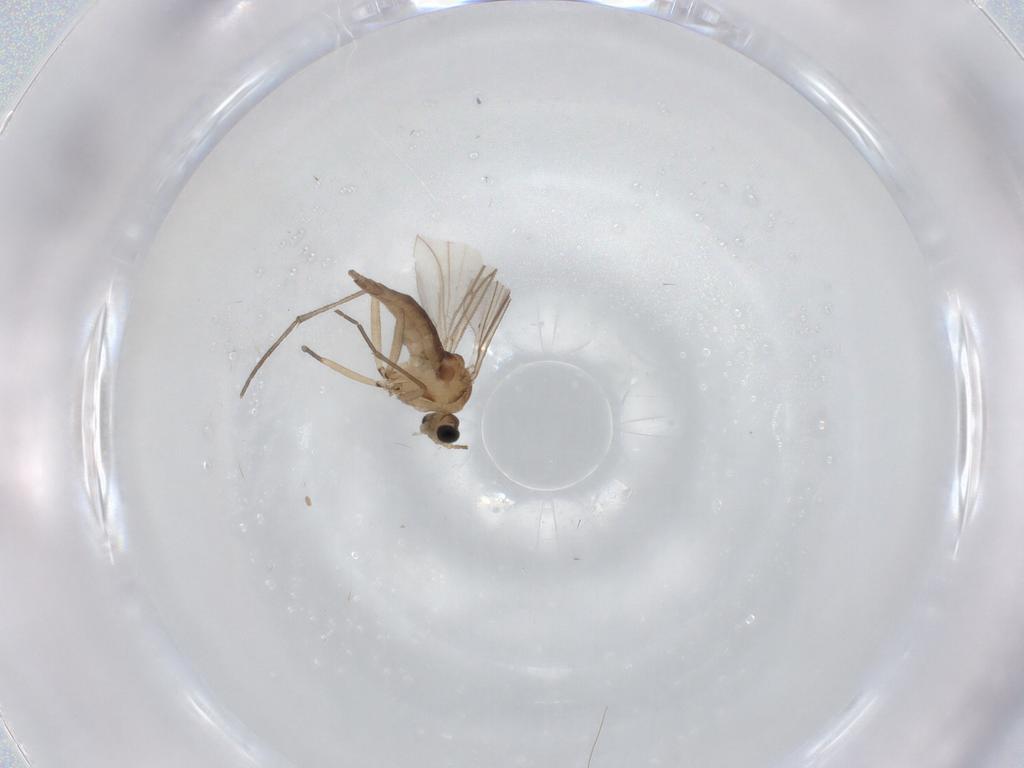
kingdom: Animalia
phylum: Arthropoda
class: Insecta
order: Diptera
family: Sciaridae
